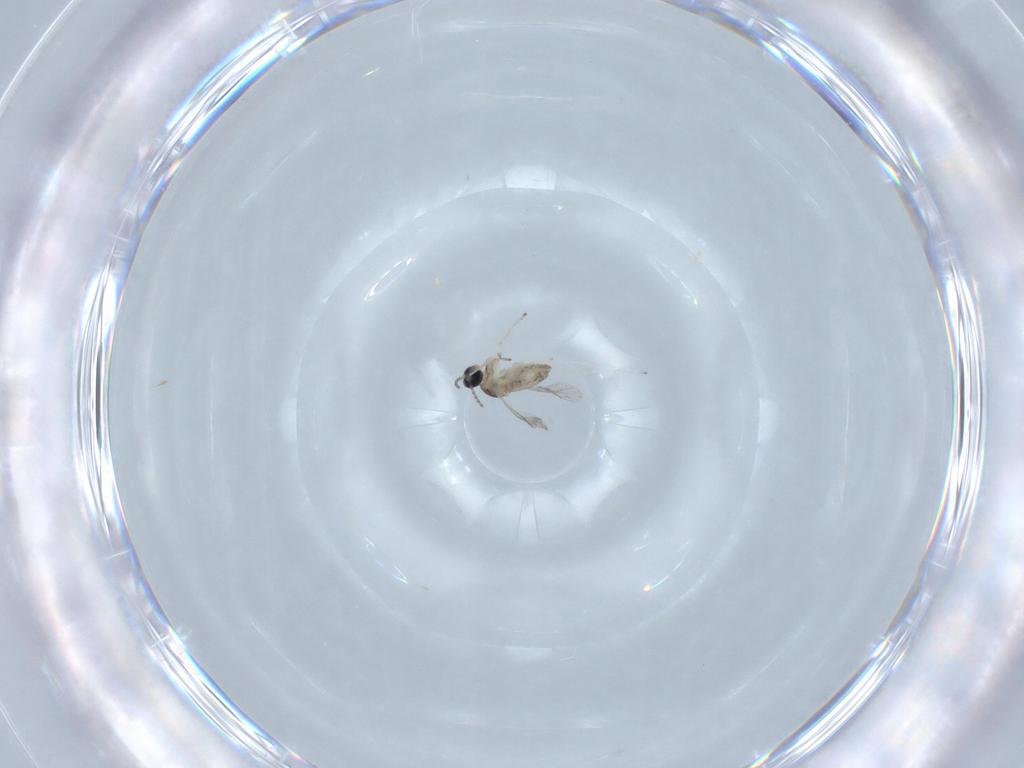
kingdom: Animalia
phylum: Arthropoda
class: Insecta
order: Diptera
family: Cecidomyiidae
